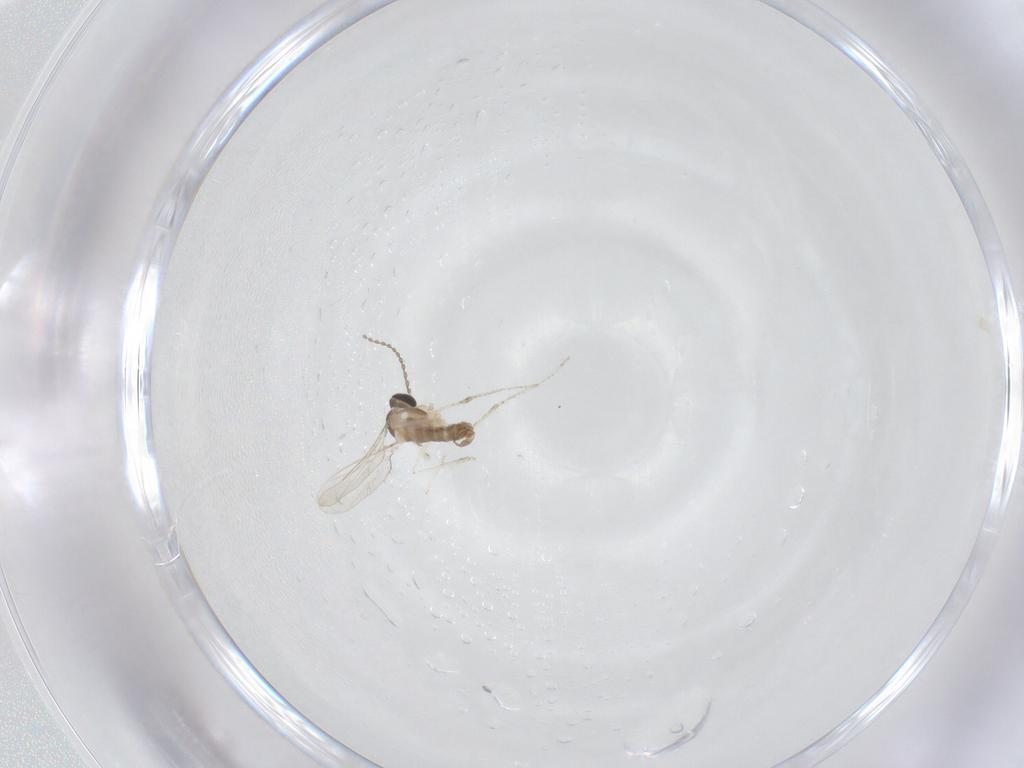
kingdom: Animalia
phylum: Arthropoda
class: Insecta
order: Diptera
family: Cecidomyiidae
